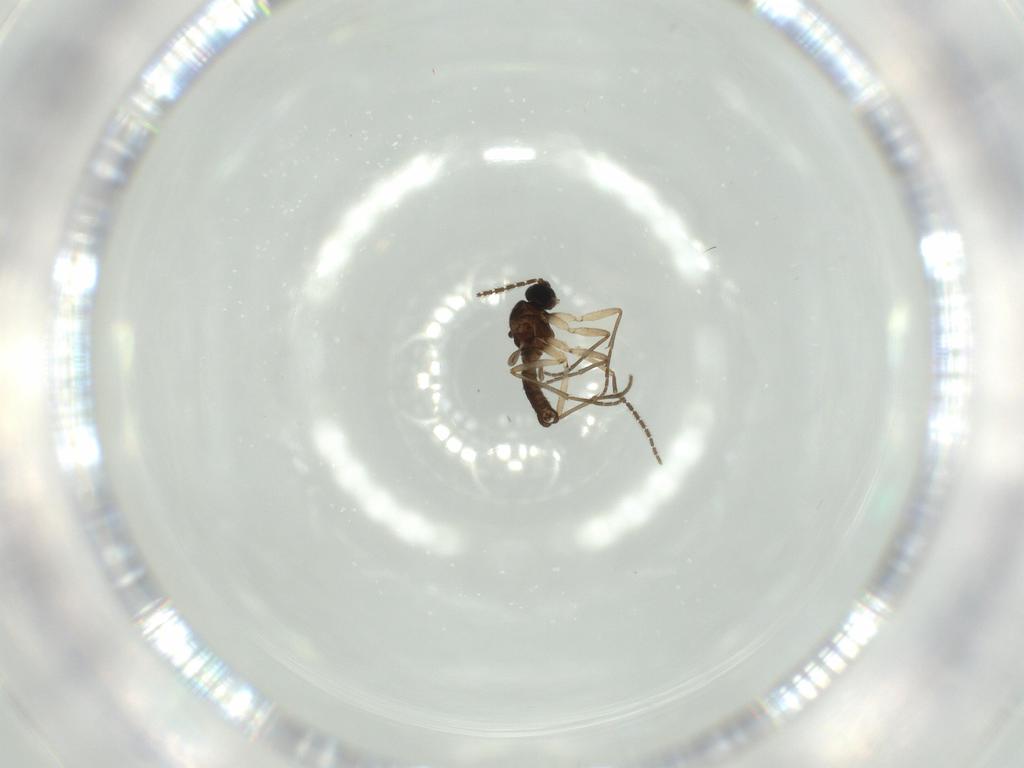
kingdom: Animalia
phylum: Arthropoda
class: Insecta
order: Diptera
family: Sciaridae
